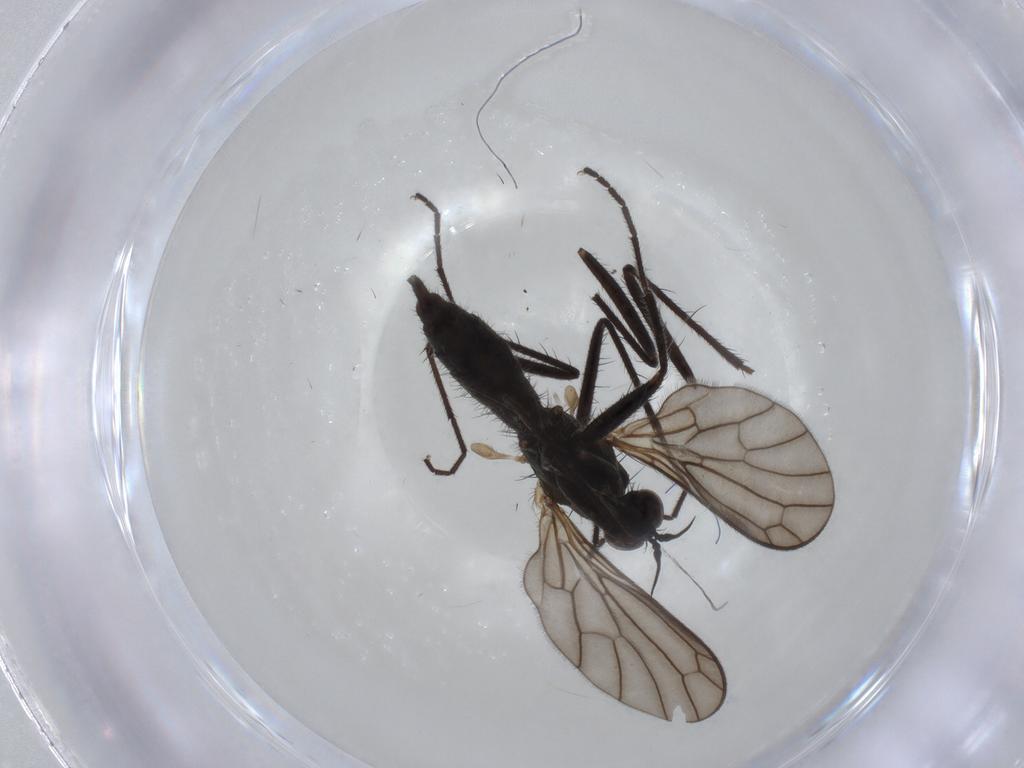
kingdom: Animalia
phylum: Arthropoda
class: Insecta
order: Diptera
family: Empididae
